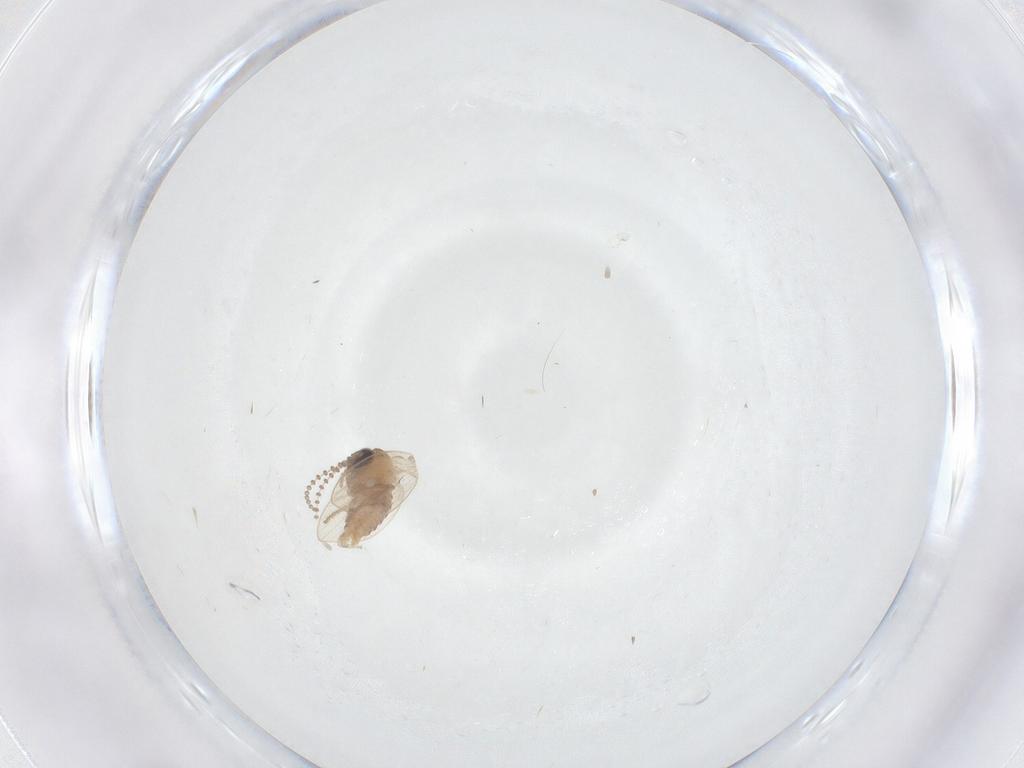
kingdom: Animalia
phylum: Arthropoda
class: Insecta
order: Diptera
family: Psychodidae
